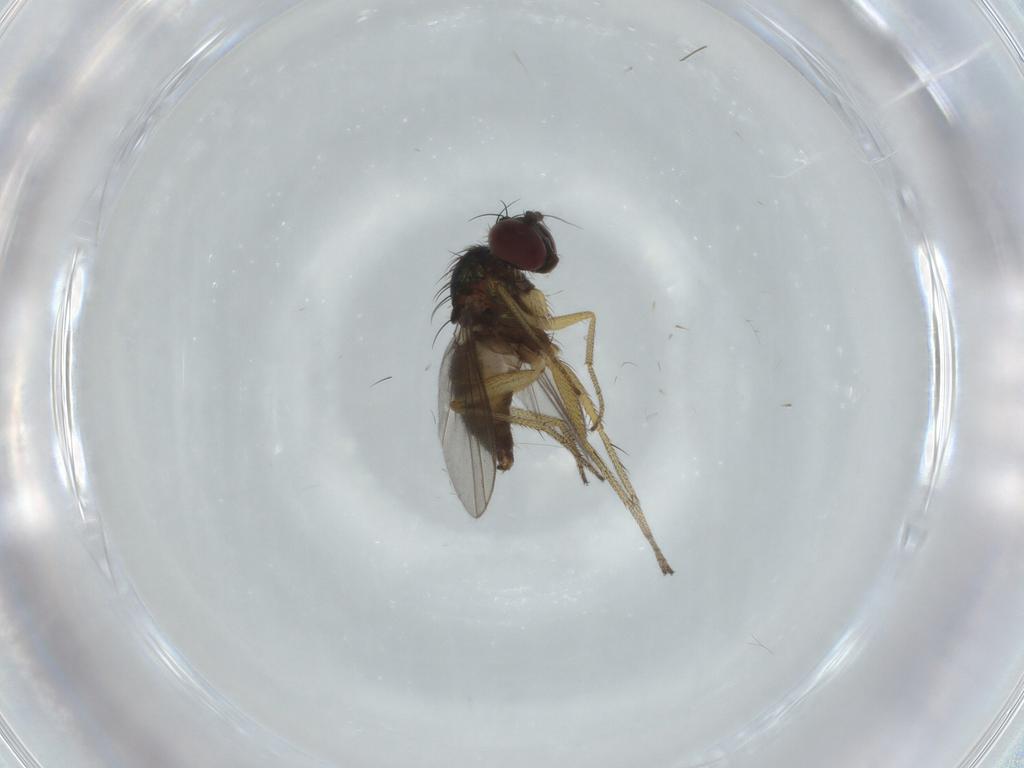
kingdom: Animalia
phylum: Arthropoda
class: Insecta
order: Diptera
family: Dolichopodidae
